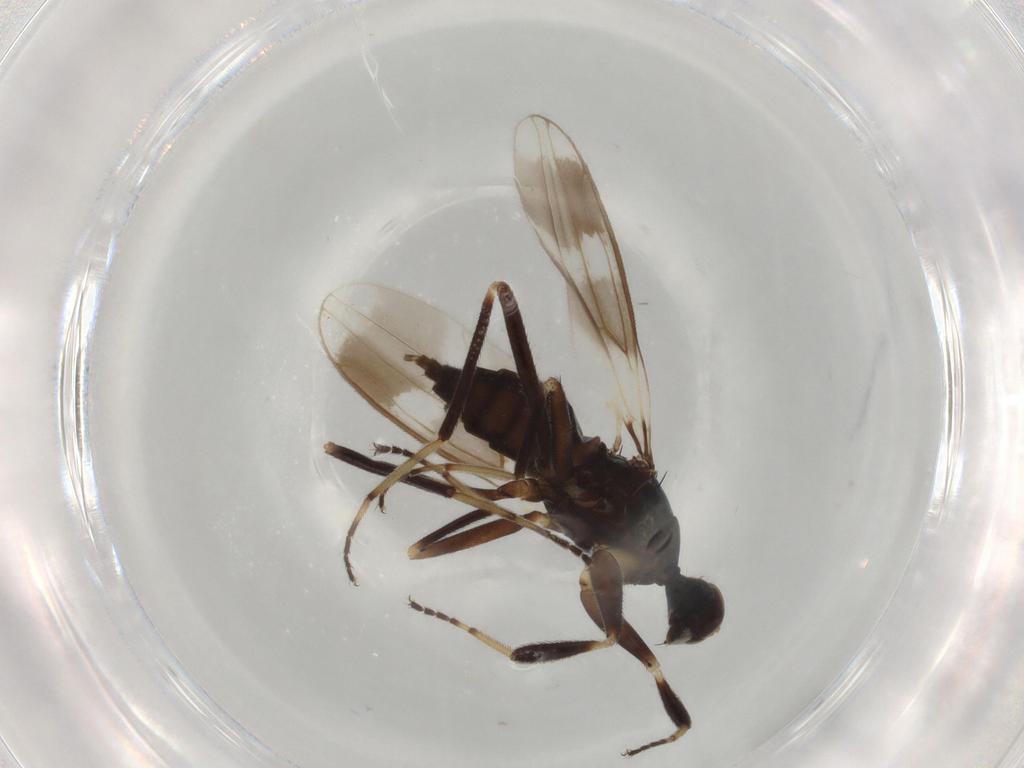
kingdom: Animalia
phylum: Arthropoda
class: Insecta
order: Diptera
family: Hybotidae
